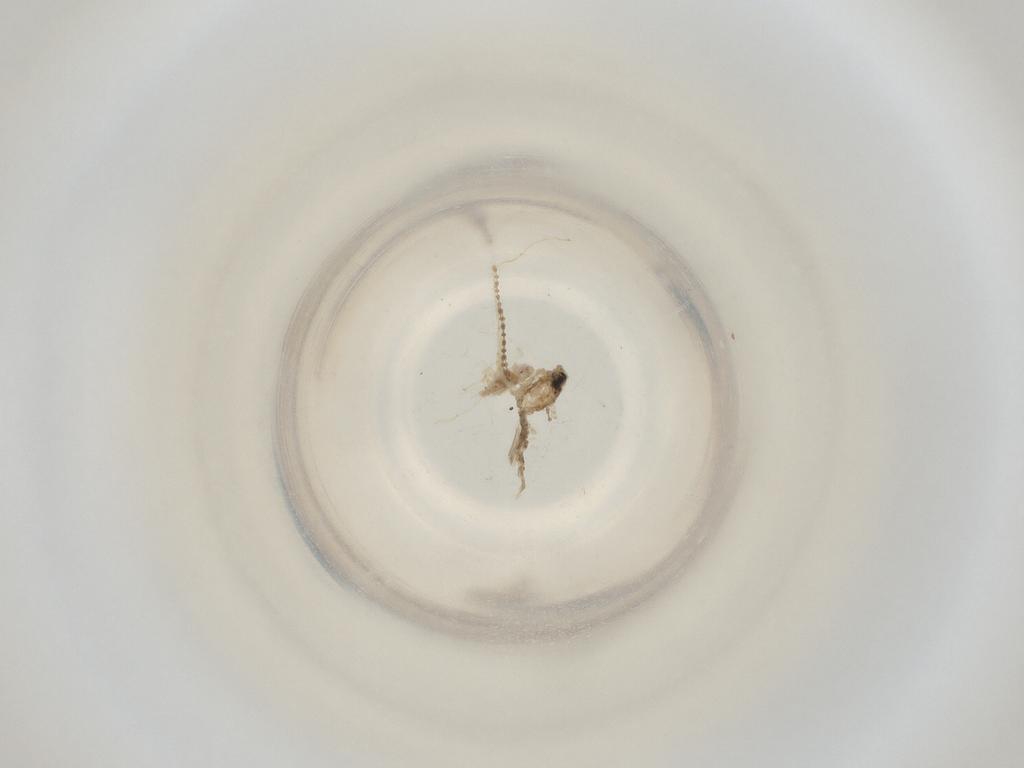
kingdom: Animalia
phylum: Arthropoda
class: Insecta
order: Diptera
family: Cecidomyiidae
